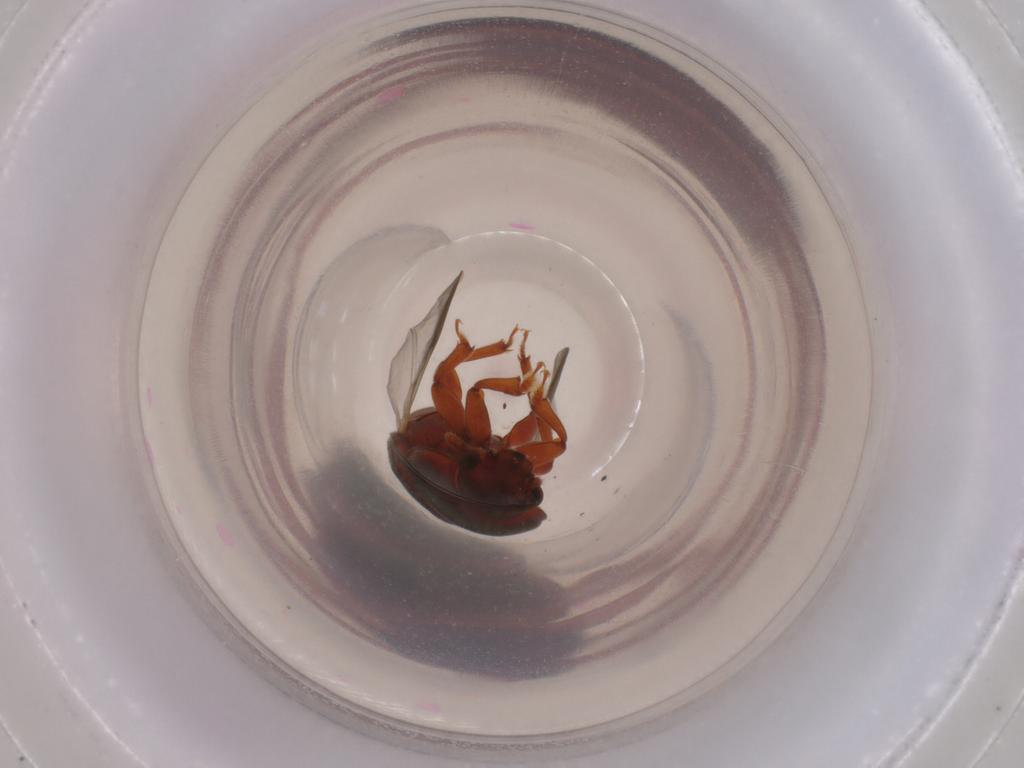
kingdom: Animalia
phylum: Arthropoda
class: Insecta
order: Coleoptera
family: Nitidulidae
